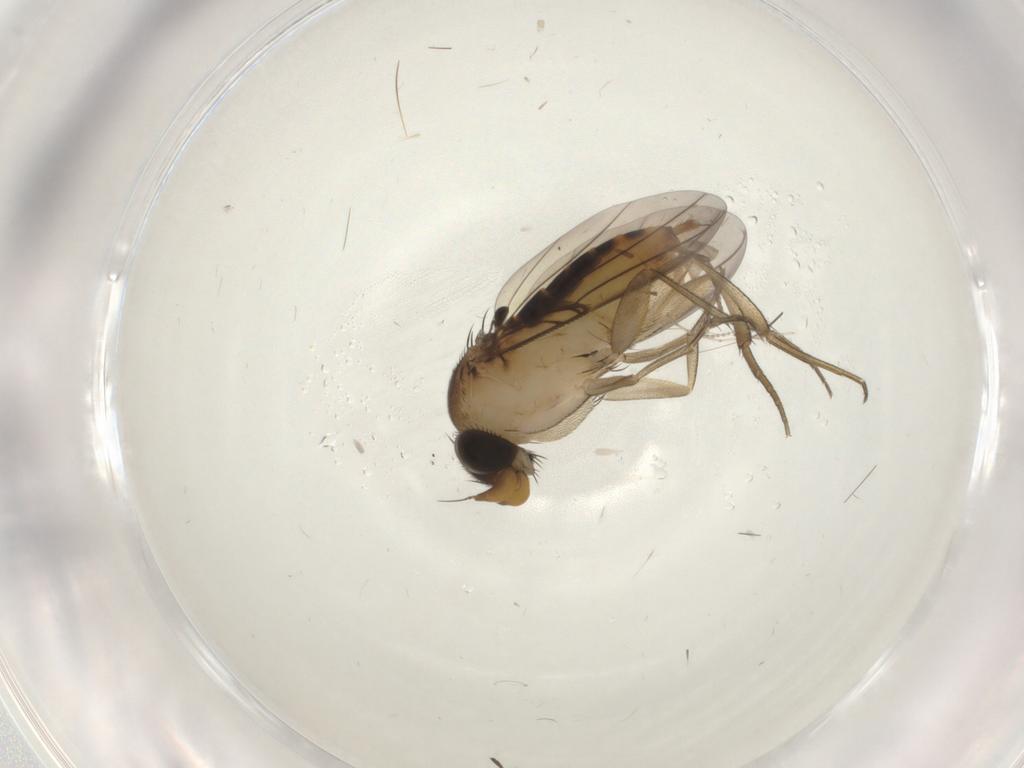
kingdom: Animalia
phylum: Arthropoda
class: Insecta
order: Diptera
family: Phoridae
